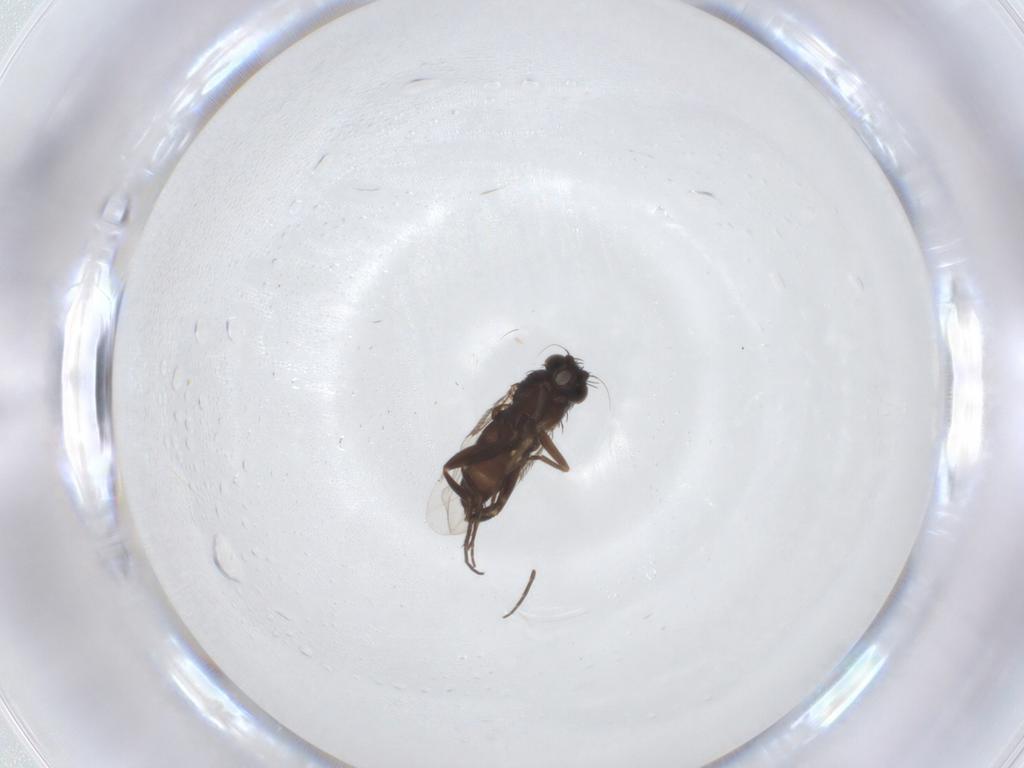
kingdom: Animalia
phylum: Arthropoda
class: Insecta
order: Diptera
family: Phoridae
